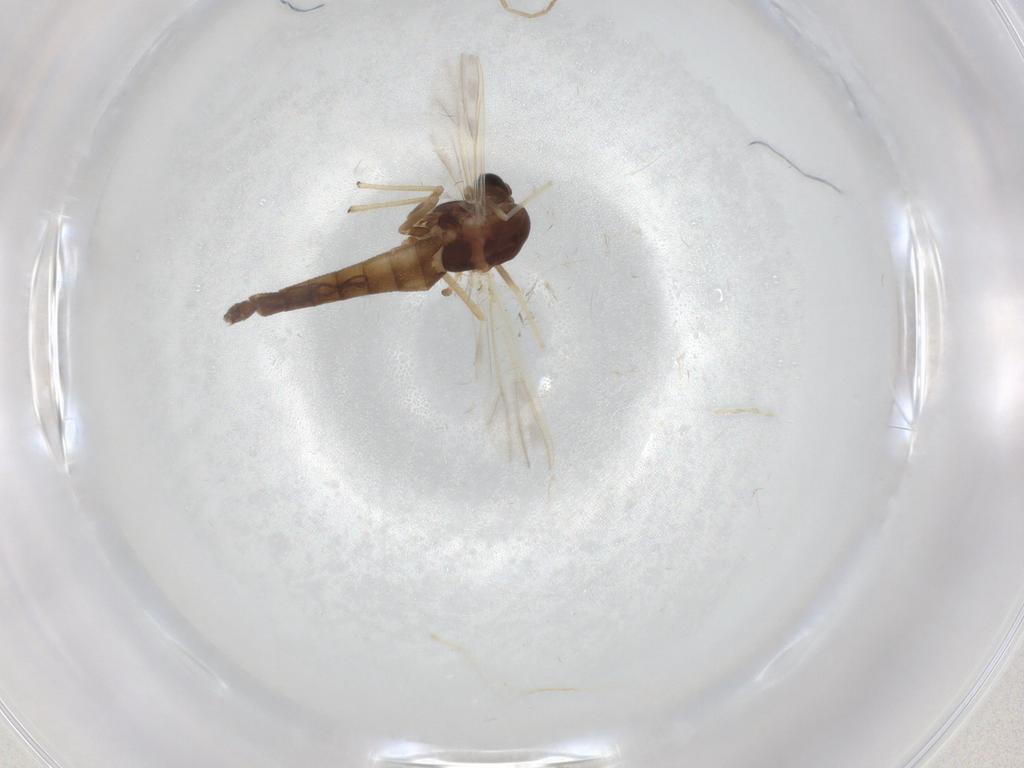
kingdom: Animalia
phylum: Arthropoda
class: Insecta
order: Diptera
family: Chironomidae
